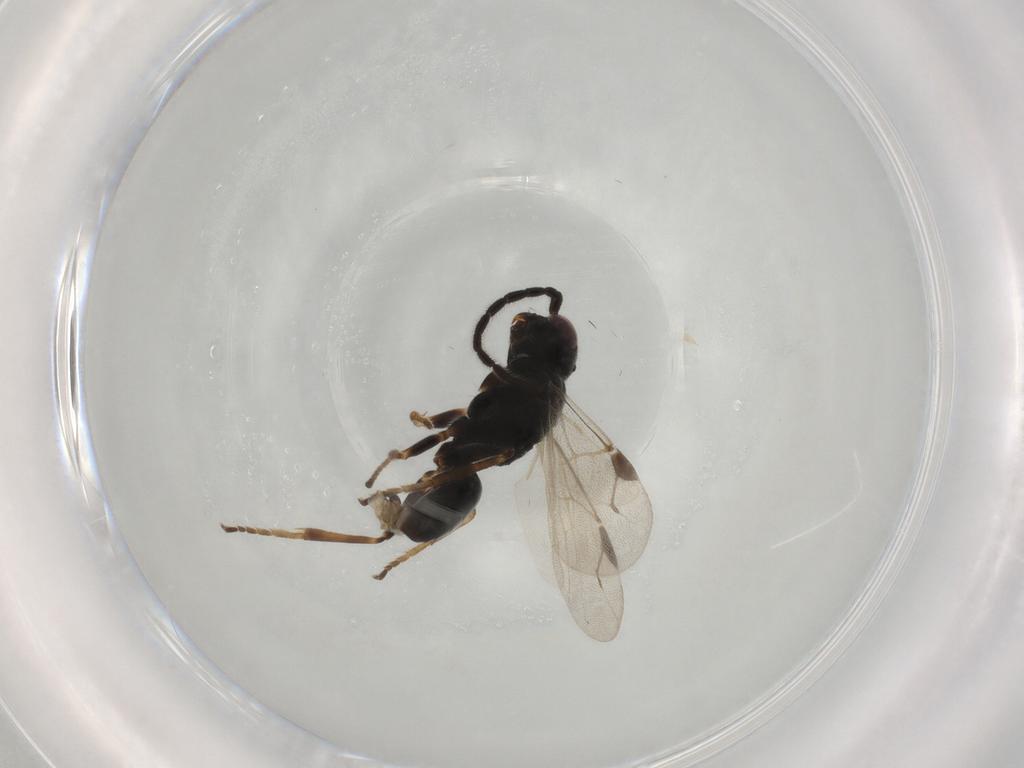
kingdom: Animalia
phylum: Arthropoda
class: Insecta
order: Hymenoptera
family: Dryinidae
